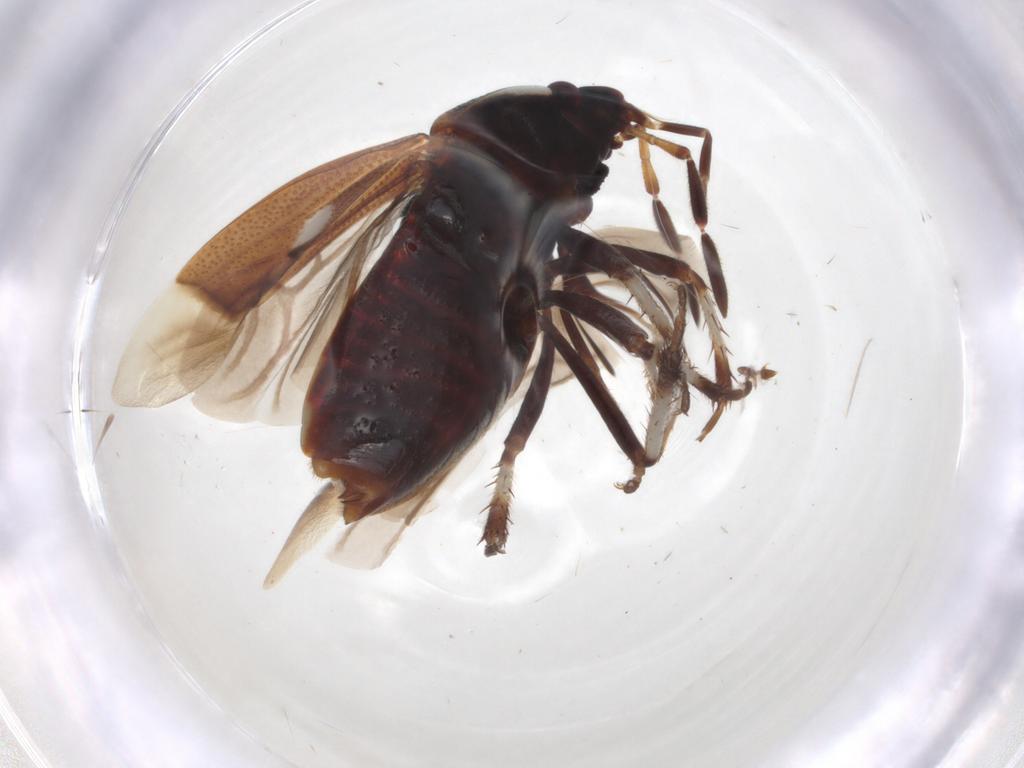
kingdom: Animalia
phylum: Arthropoda
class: Insecta
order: Hemiptera
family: Cydnidae
